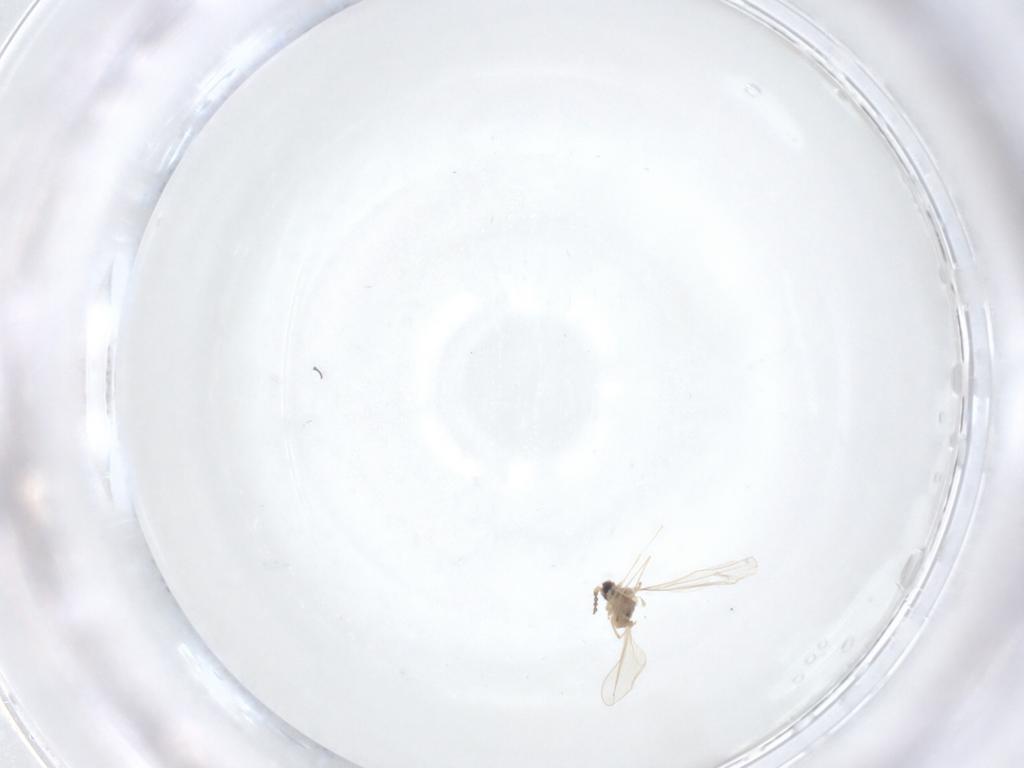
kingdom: Animalia
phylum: Arthropoda
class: Insecta
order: Diptera
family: Cecidomyiidae
